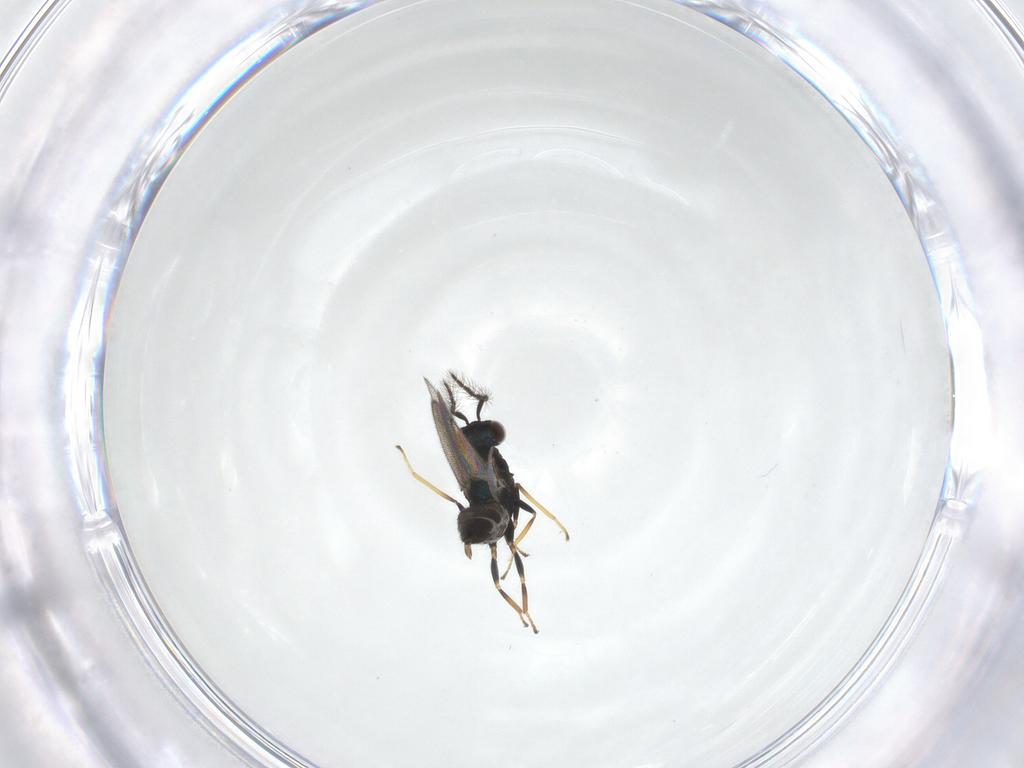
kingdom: Animalia
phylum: Arthropoda
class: Insecta
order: Hymenoptera
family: Eulophidae
